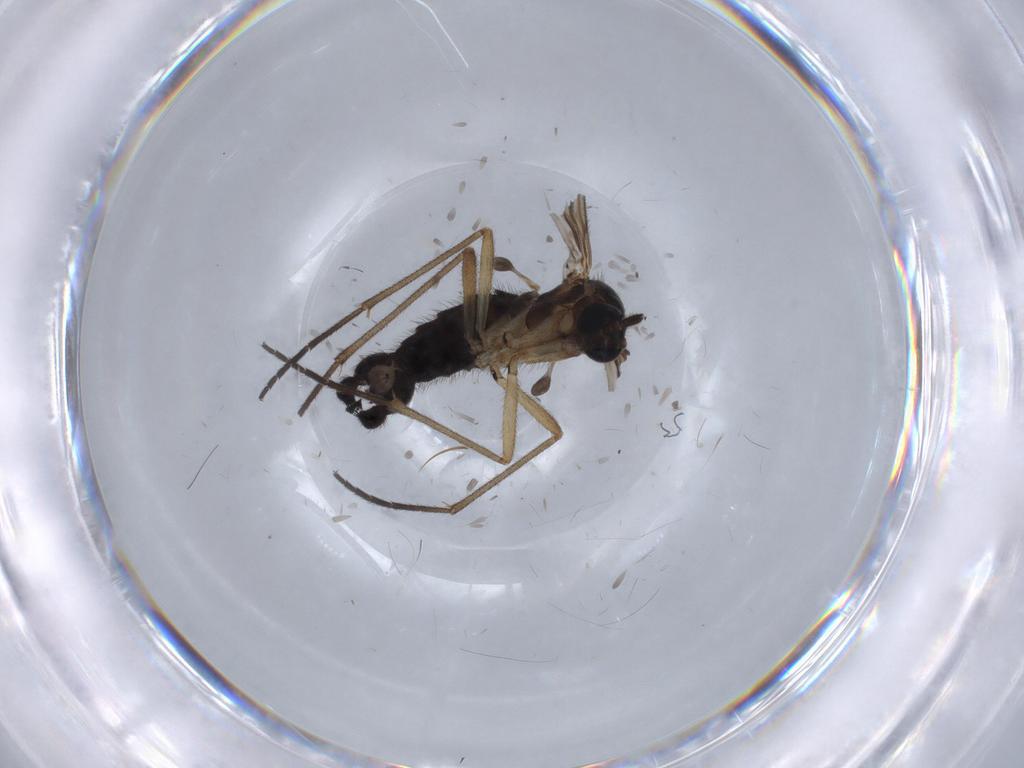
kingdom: Animalia
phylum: Arthropoda
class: Insecta
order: Diptera
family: Sciaridae
